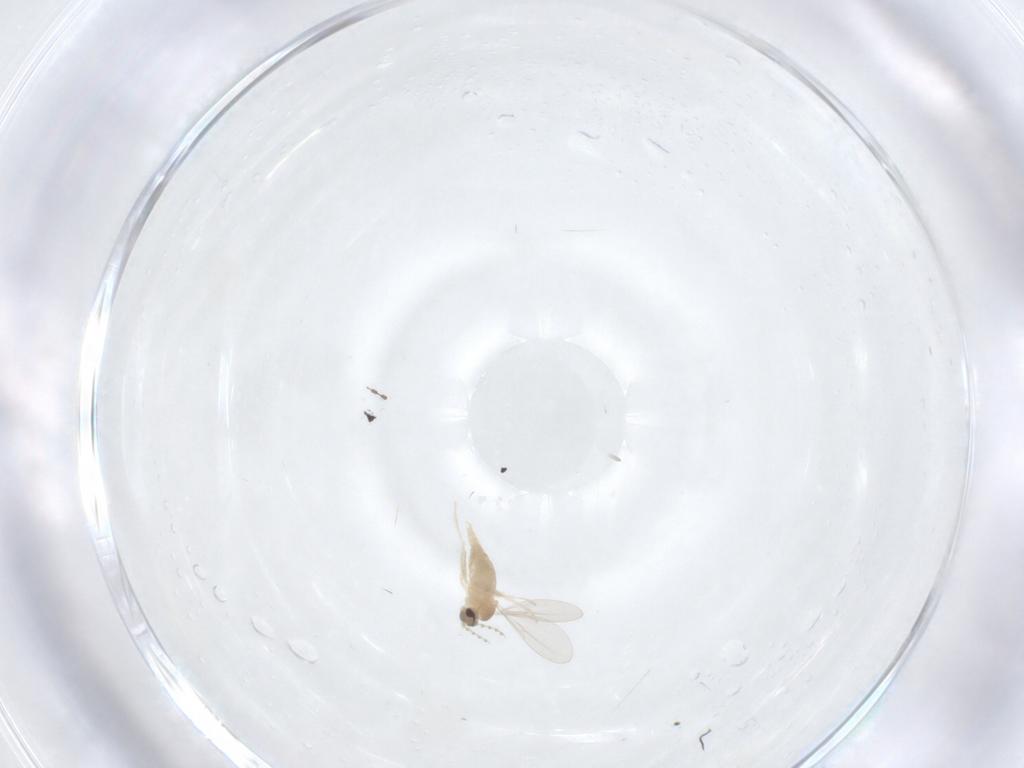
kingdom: Animalia
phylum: Arthropoda
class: Insecta
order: Diptera
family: Cecidomyiidae
